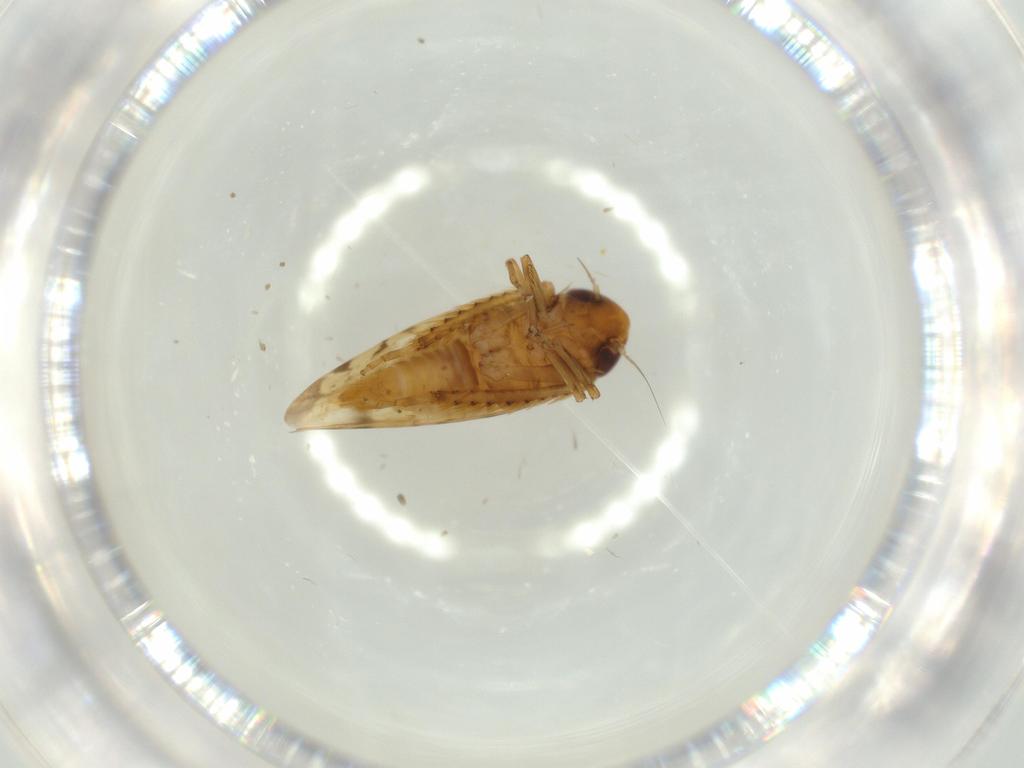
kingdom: Animalia
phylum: Arthropoda
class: Insecta
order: Hemiptera
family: Cicadellidae
